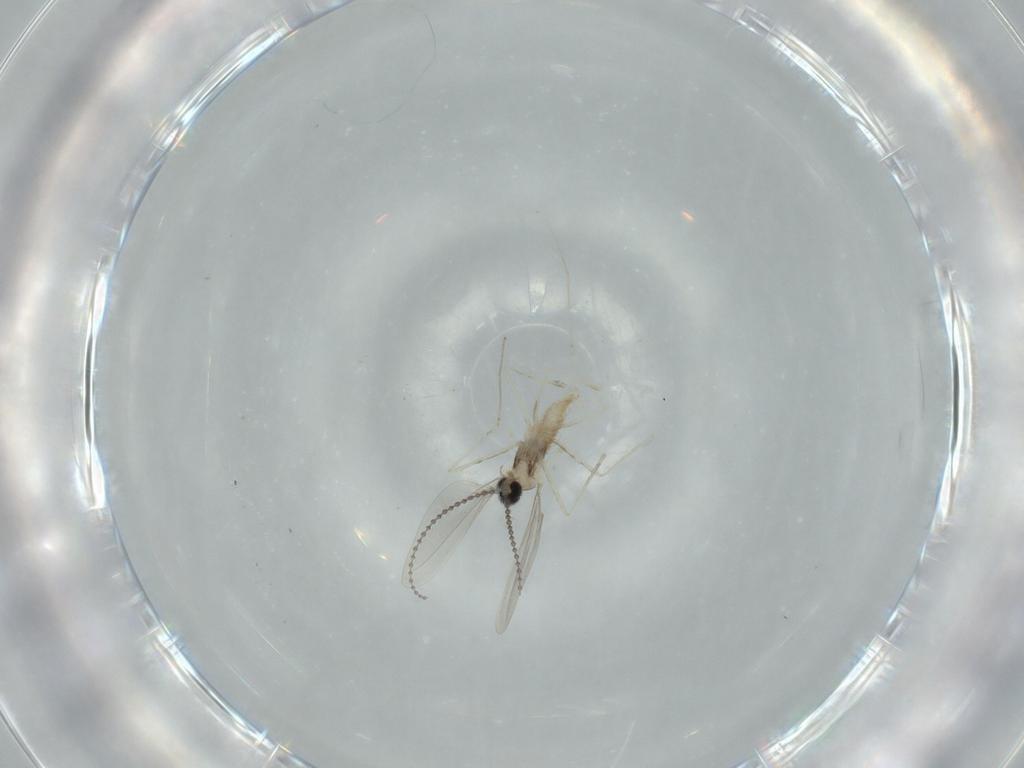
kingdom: Animalia
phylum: Arthropoda
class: Insecta
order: Diptera
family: Cecidomyiidae
